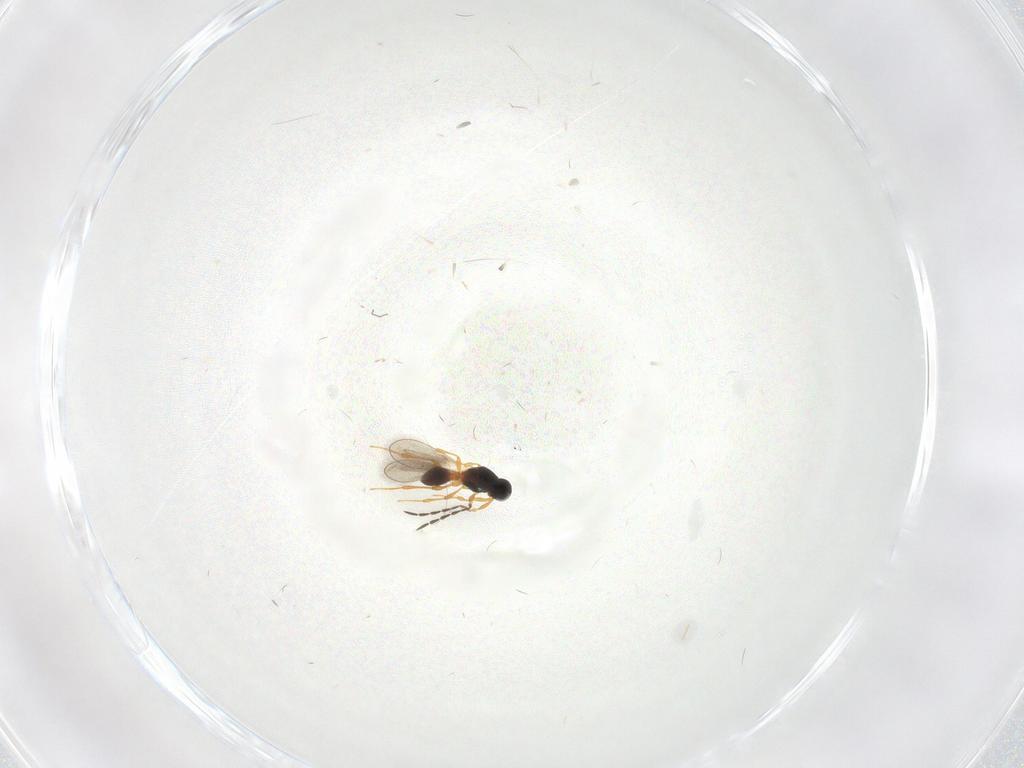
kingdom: Animalia
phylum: Arthropoda
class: Insecta
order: Hymenoptera
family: Platygastridae
